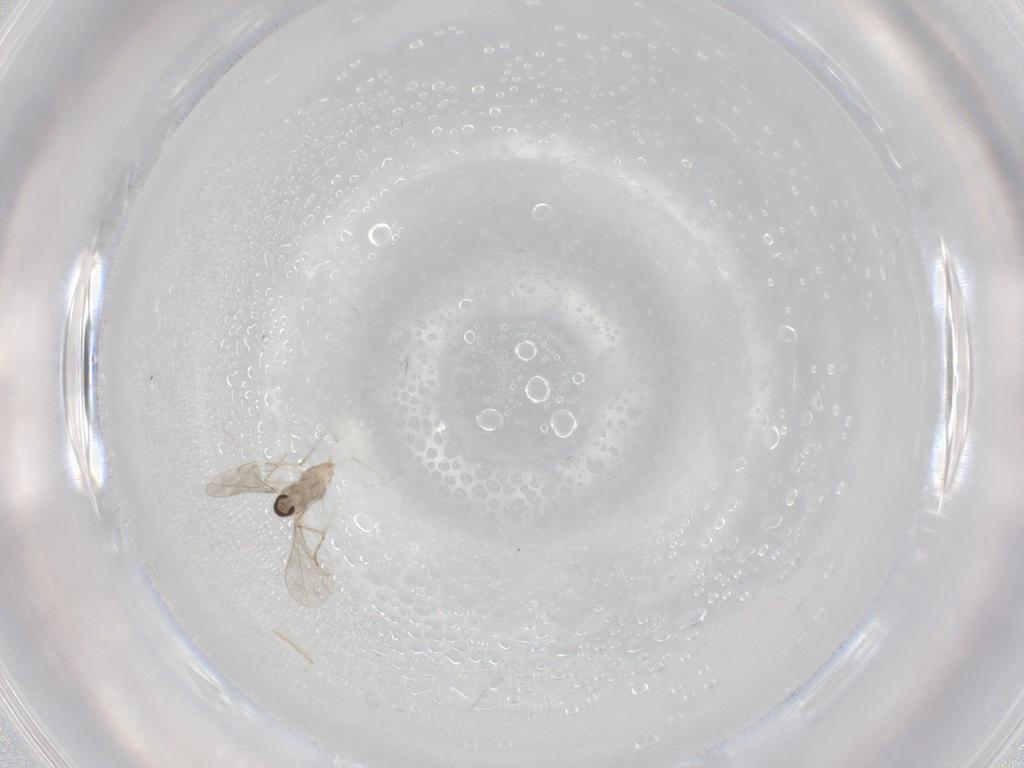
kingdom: Animalia
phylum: Arthropoda
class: Insecta
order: Diptera
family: Cecidomyiidae
